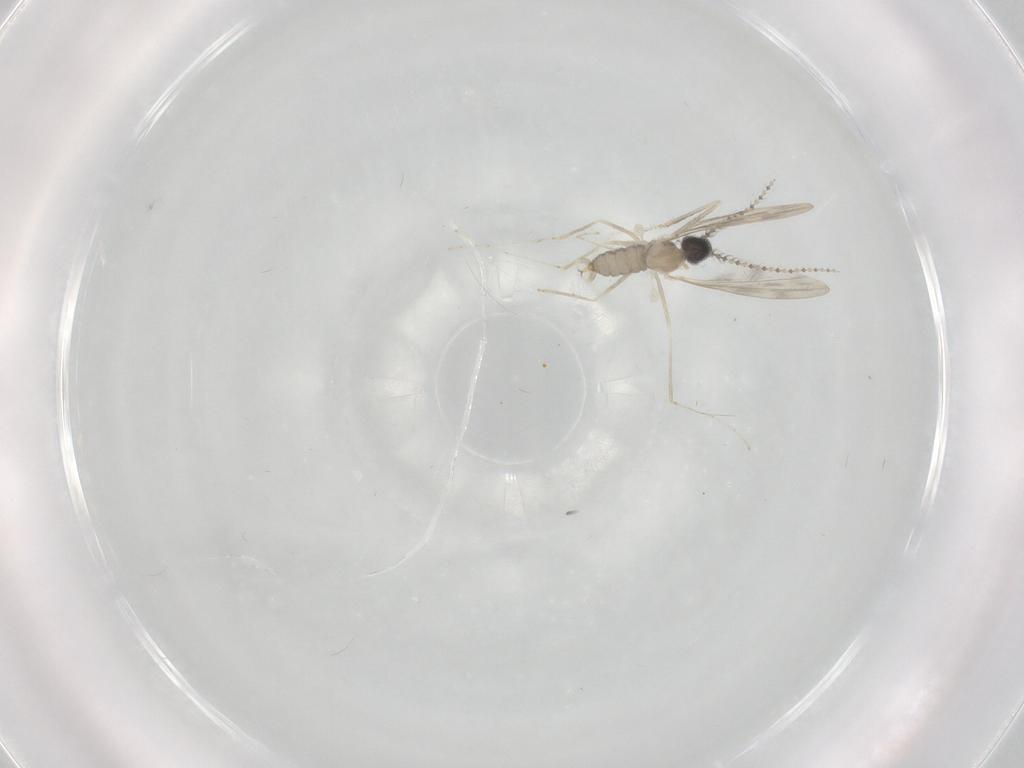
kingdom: Animalia
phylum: Arthropoda
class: Insecta
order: Diptera
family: Cecidomyiidae
